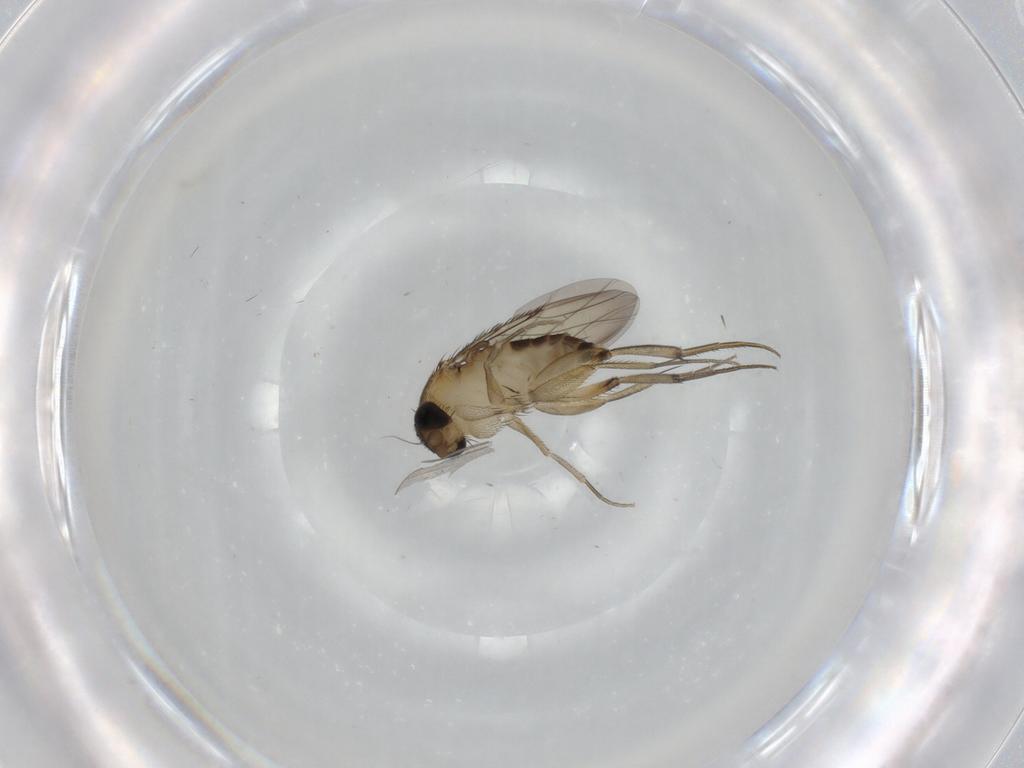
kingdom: Animalia
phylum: Arthropoda
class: Insecta
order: Diptera
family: Phoridae
